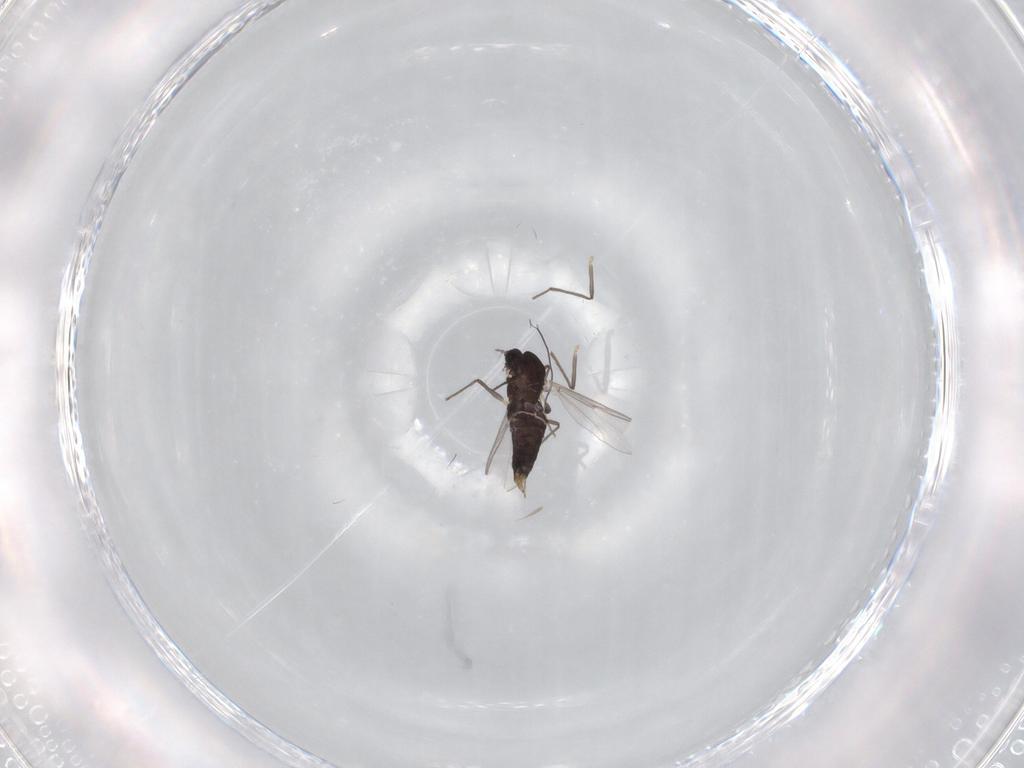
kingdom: Animalia
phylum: Arthropoda
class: Insecta
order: Diptera
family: Chironomidae
